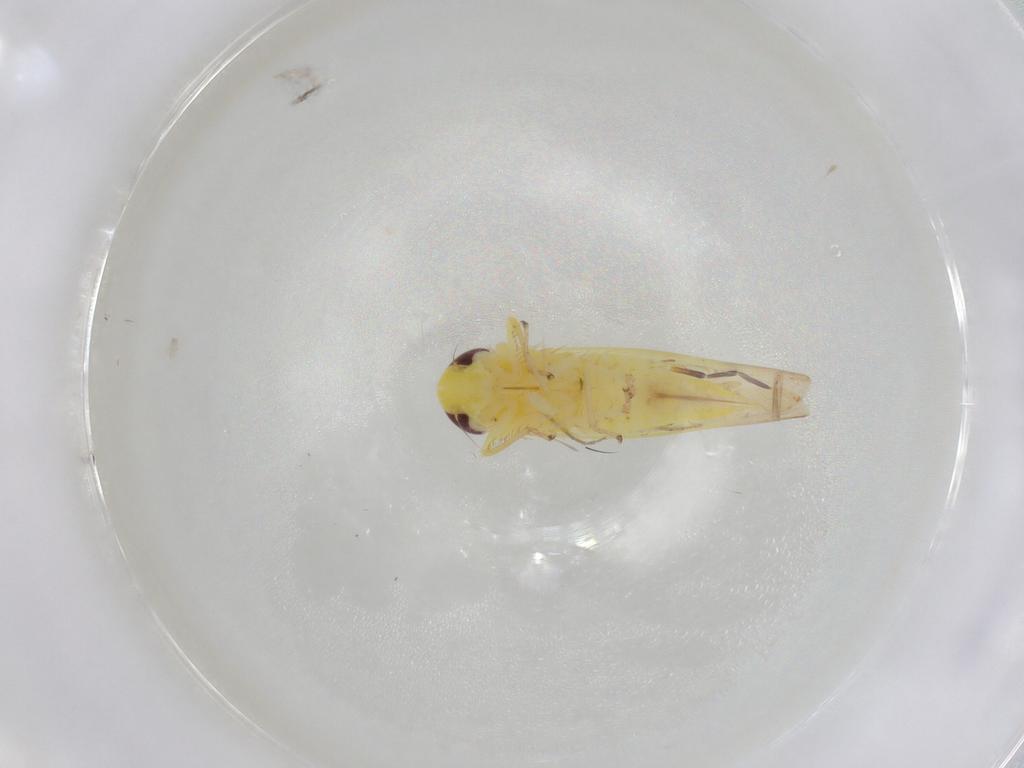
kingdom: Animalia
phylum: Arthropoda
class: Insecta
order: Hemiptera
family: Cicadellidae
